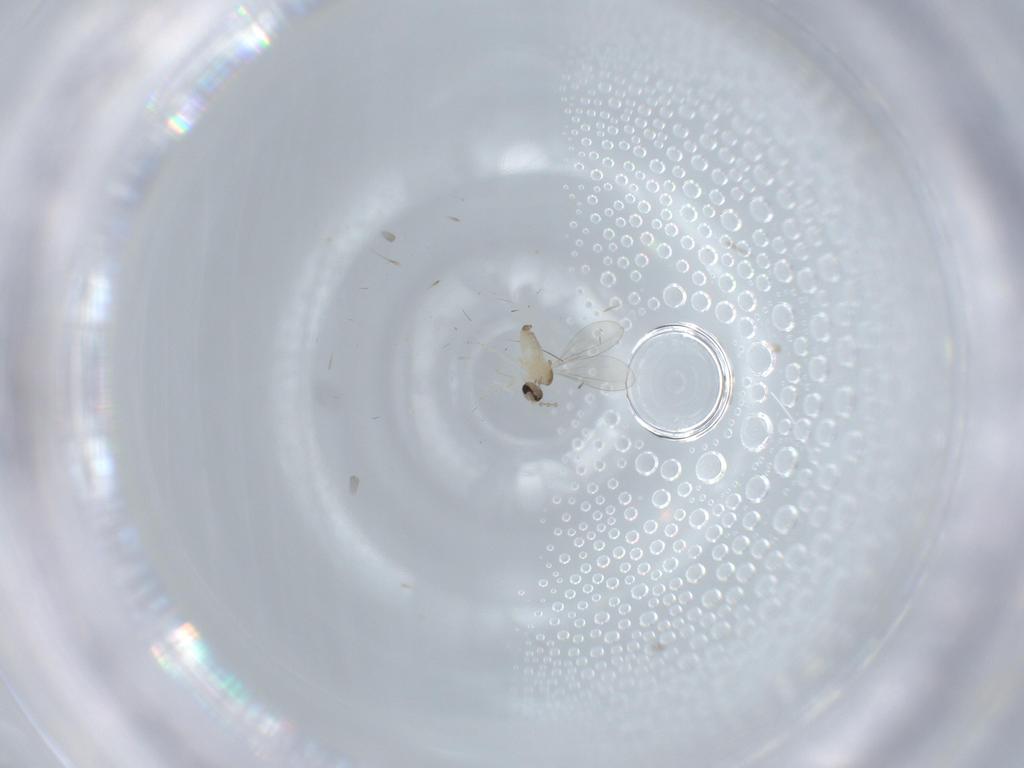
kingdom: Animalia
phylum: Arthropoda
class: Insecta
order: Diptera
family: Cecidomyiidae
